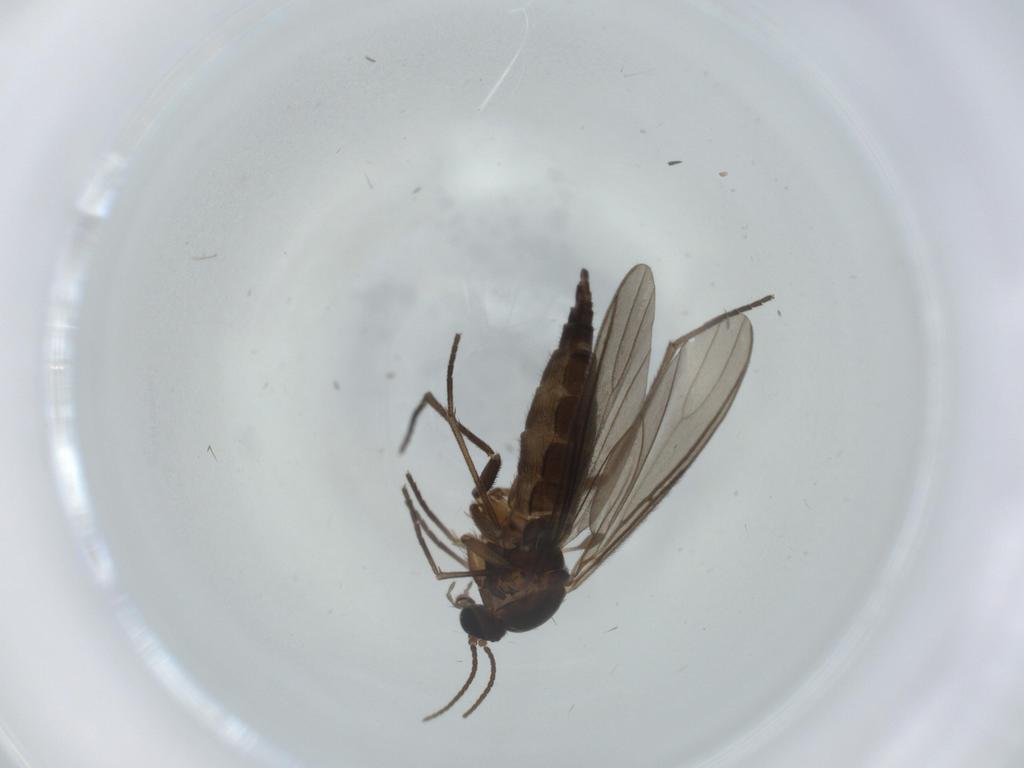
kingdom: Animalia
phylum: Arthropoda
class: Insecta
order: Diptera
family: Sciaridae
